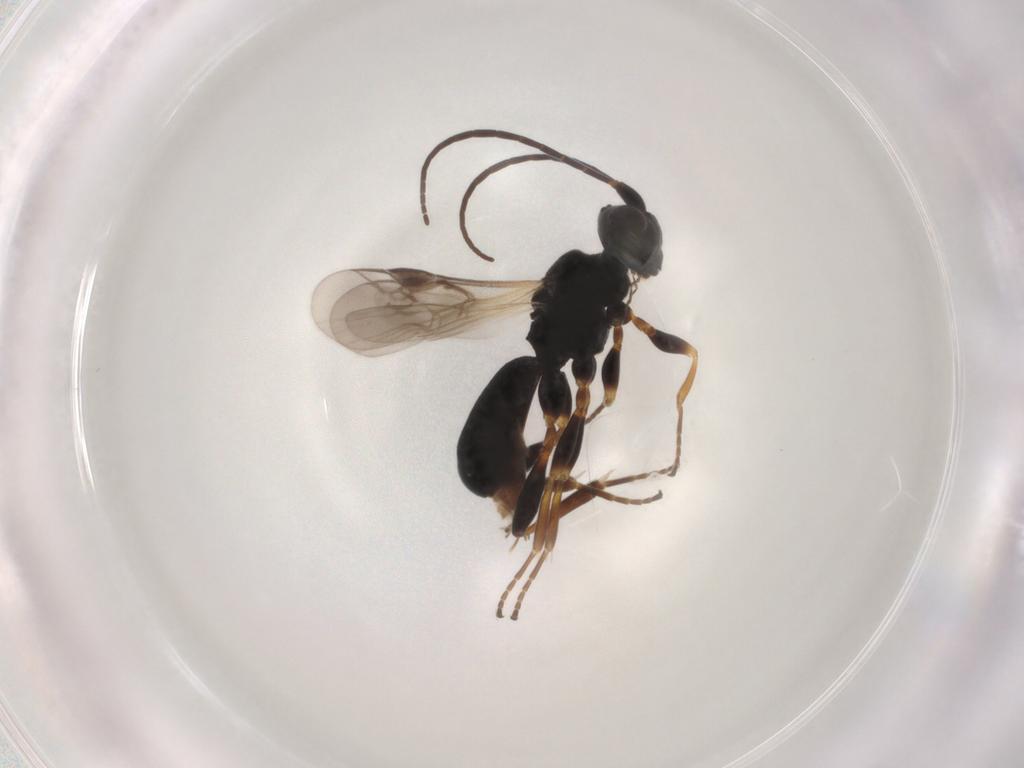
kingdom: Animalia
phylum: Arthropoda
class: Insecta
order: Hymenoptera
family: Braconidae
